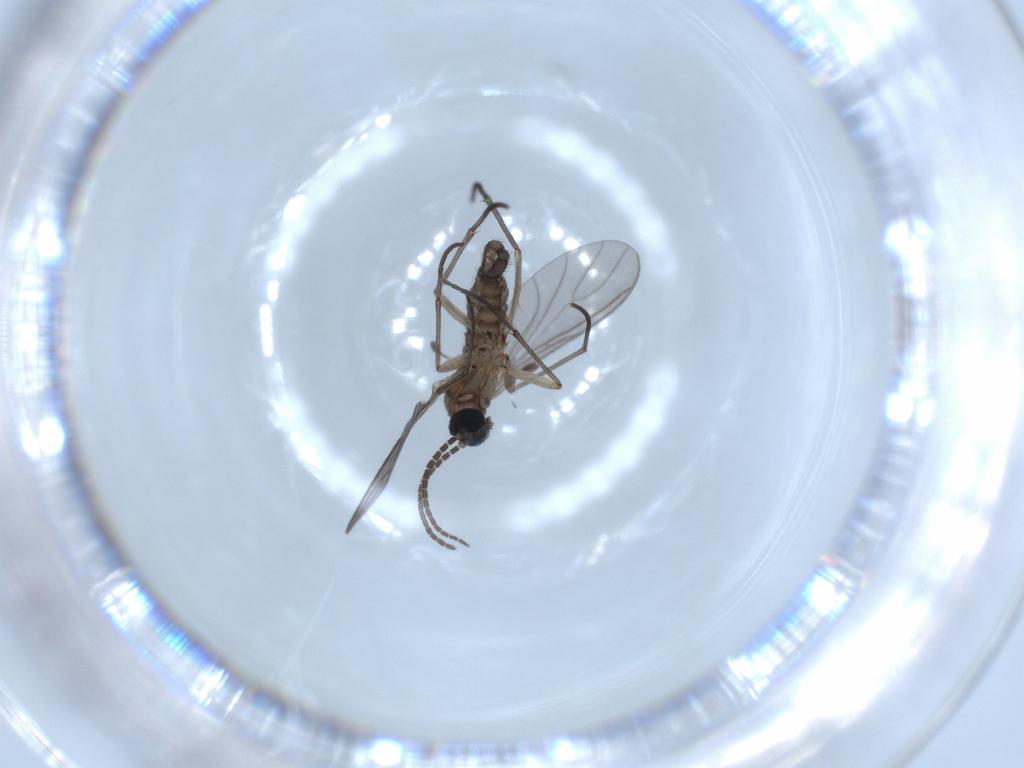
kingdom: Animalia
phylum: Arthropoda
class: Insecta
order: Diptera
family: Sciaridae
